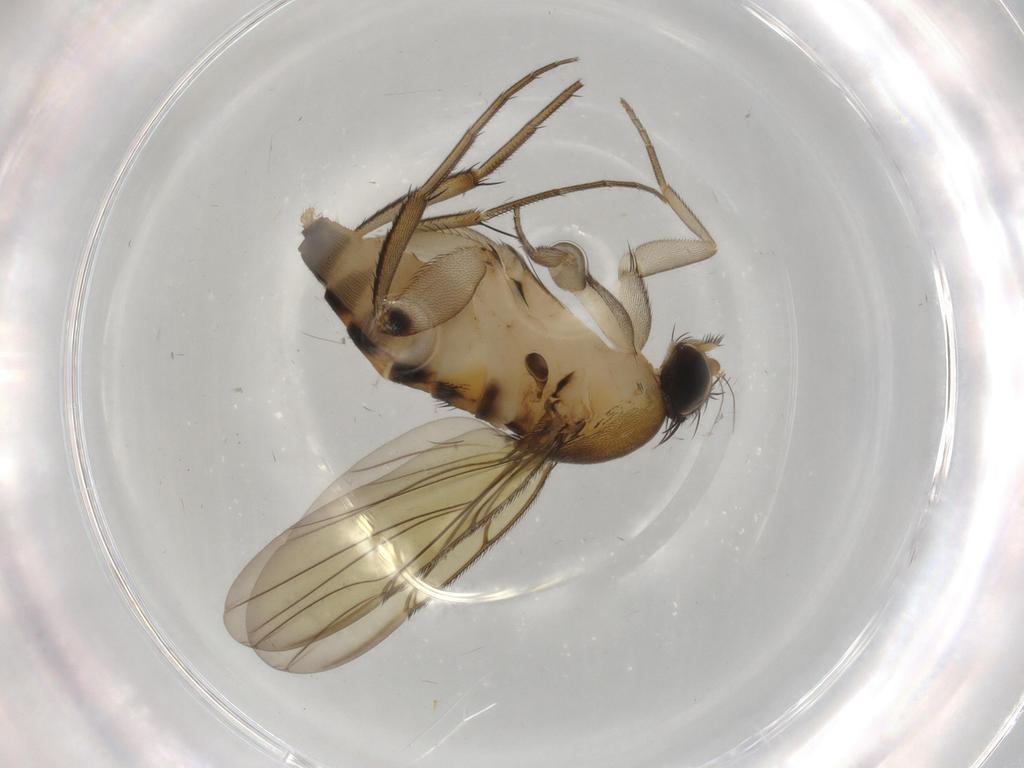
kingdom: Animalia
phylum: Arthropoda
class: Insecta
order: Diptera
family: Phoridae
